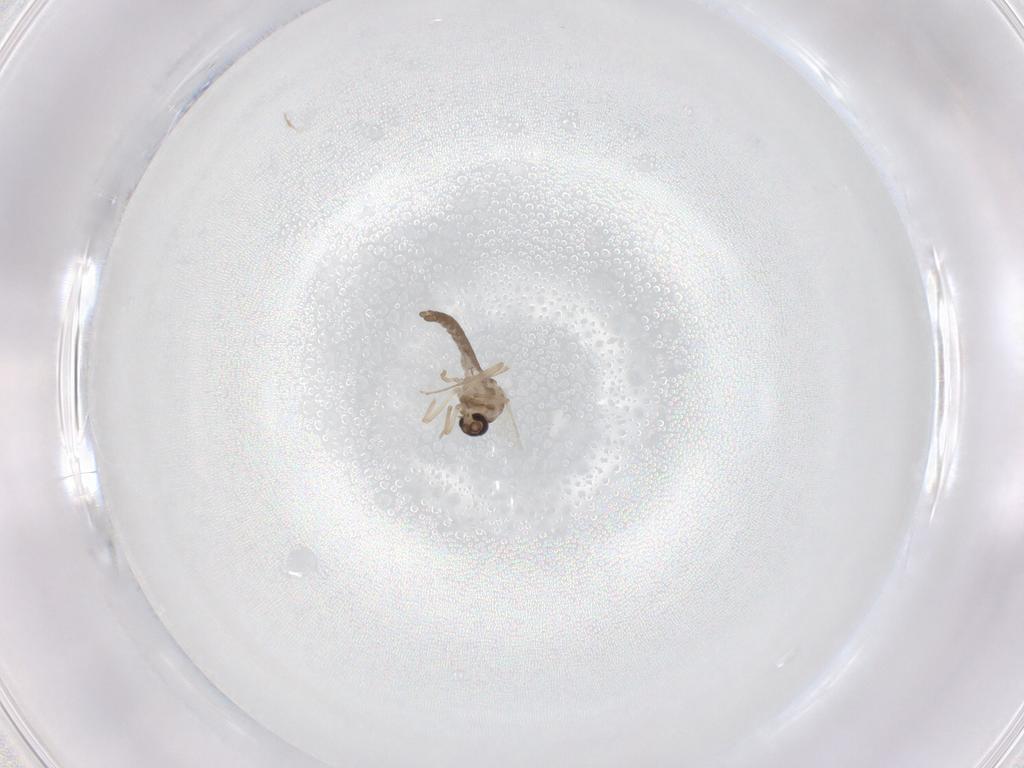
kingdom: Animalia
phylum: Arthropoda
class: Insecta
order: Diptera
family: Ceratopogonidae
